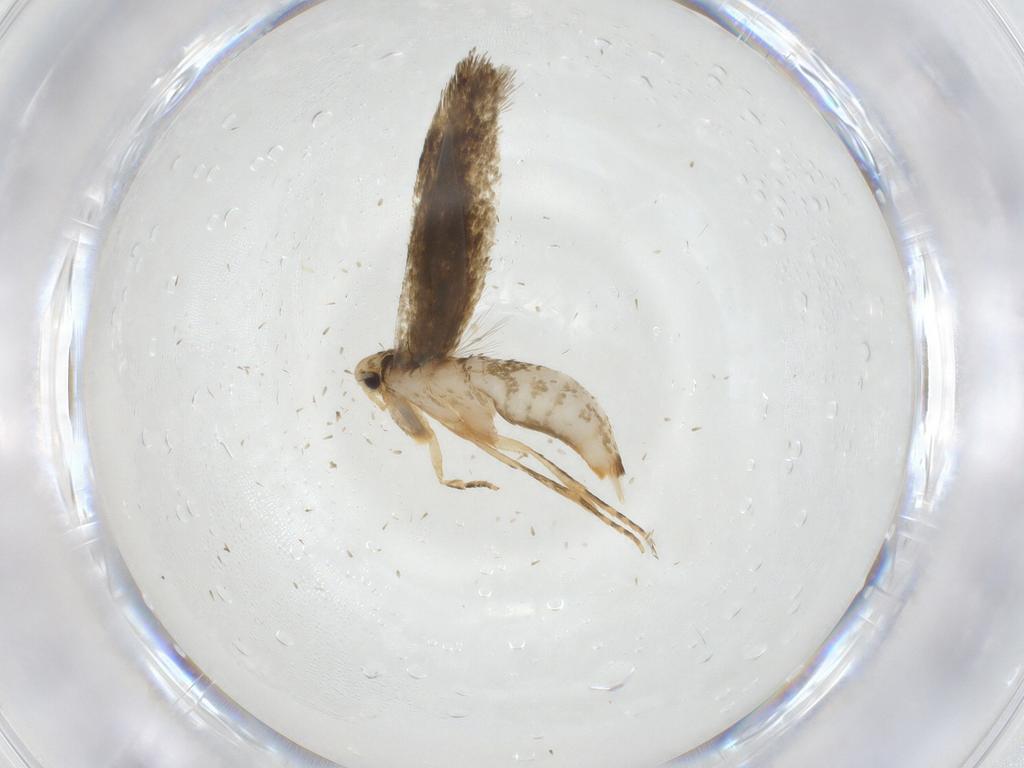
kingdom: Animalia
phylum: Arthropoda
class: Insecta
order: Lepidoptera
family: Tineidae
